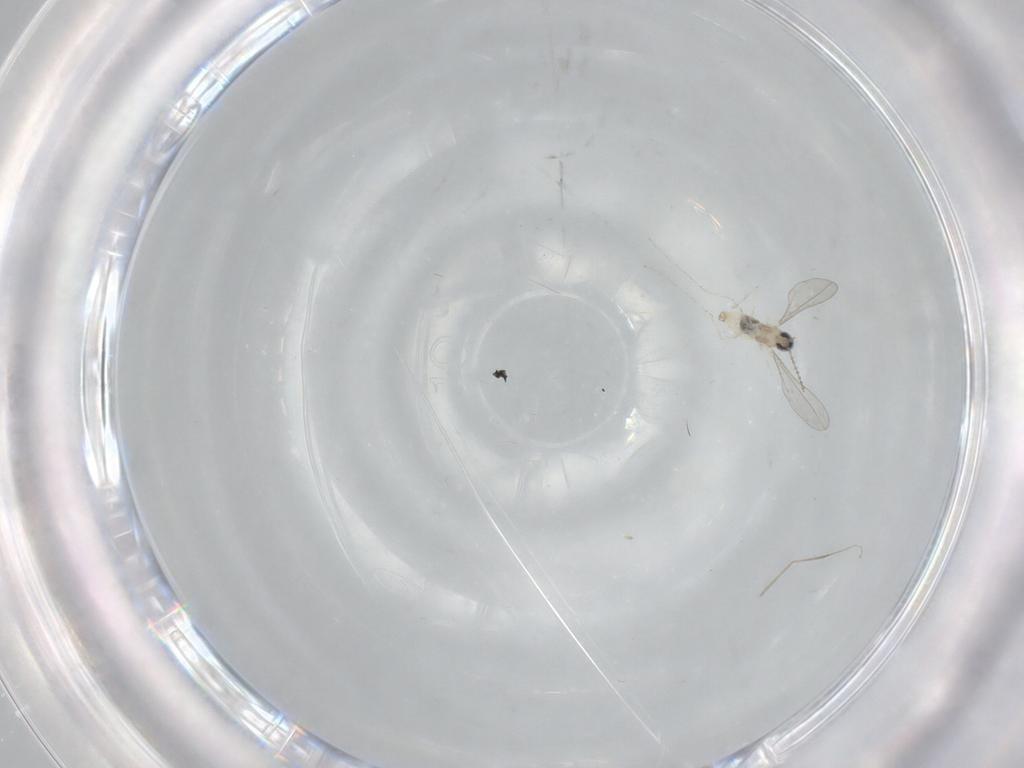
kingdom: Animalia
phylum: Arthropoda
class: Insecta
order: Diptera
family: Cecidomyiidae
